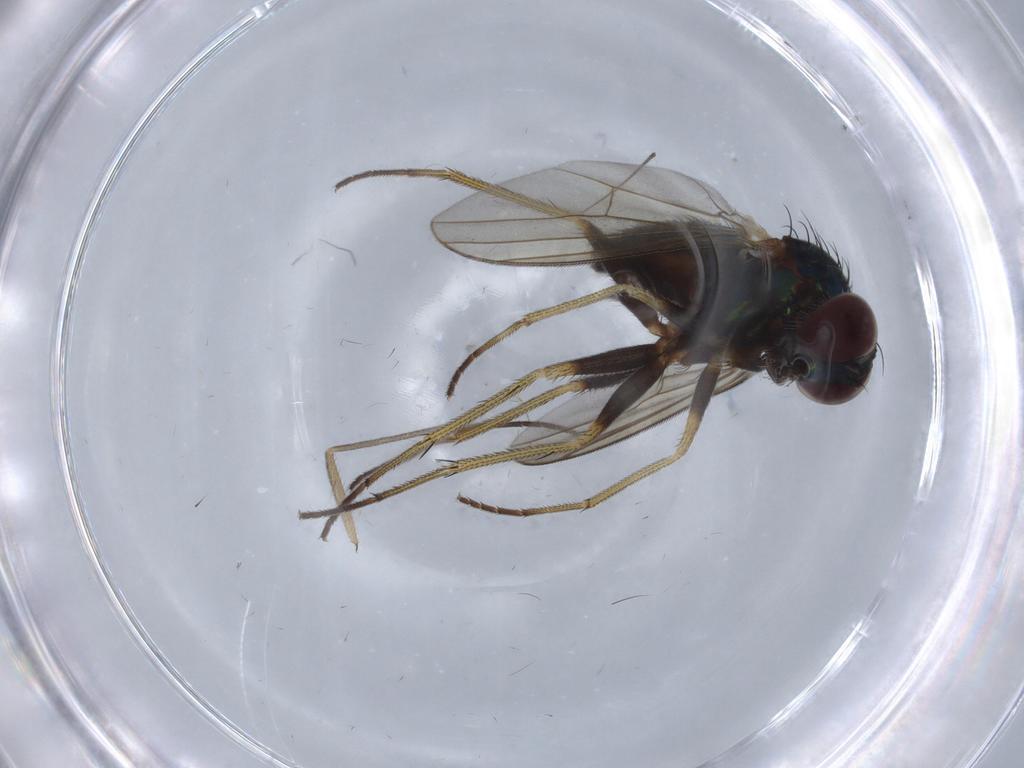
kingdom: Animalia
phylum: Arthropoda
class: Insecta
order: Diptera
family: Dolichopodidae
